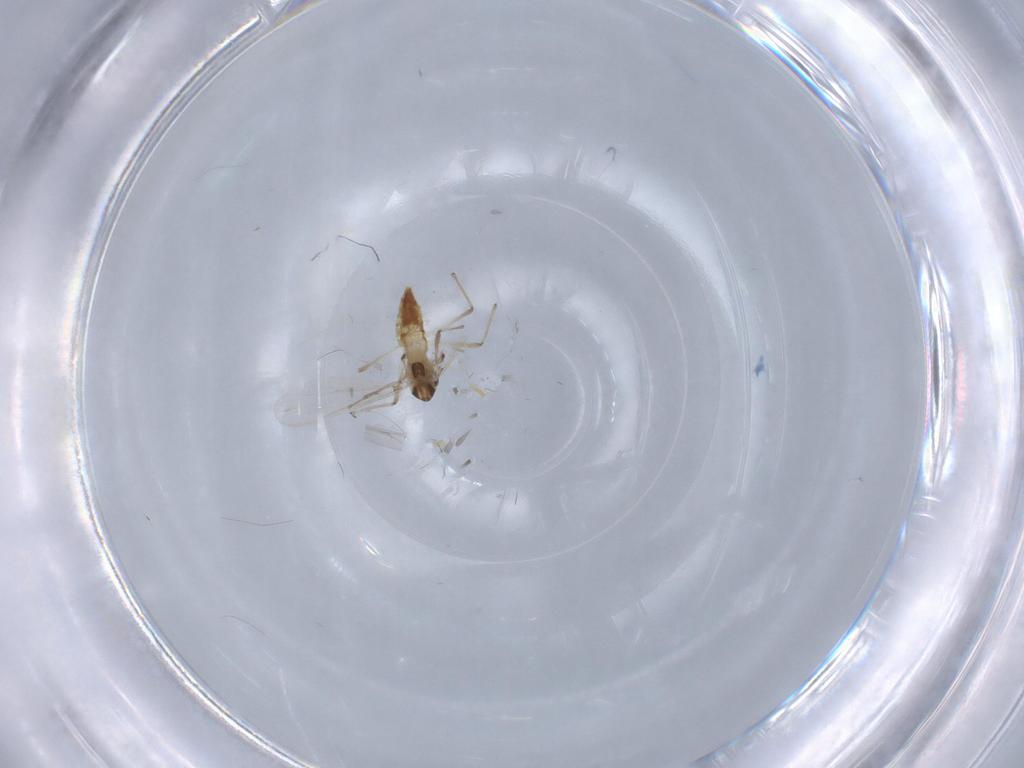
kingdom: Animalia
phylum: Arthropoda
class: Insecta
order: Diptera
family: Chironomidae
